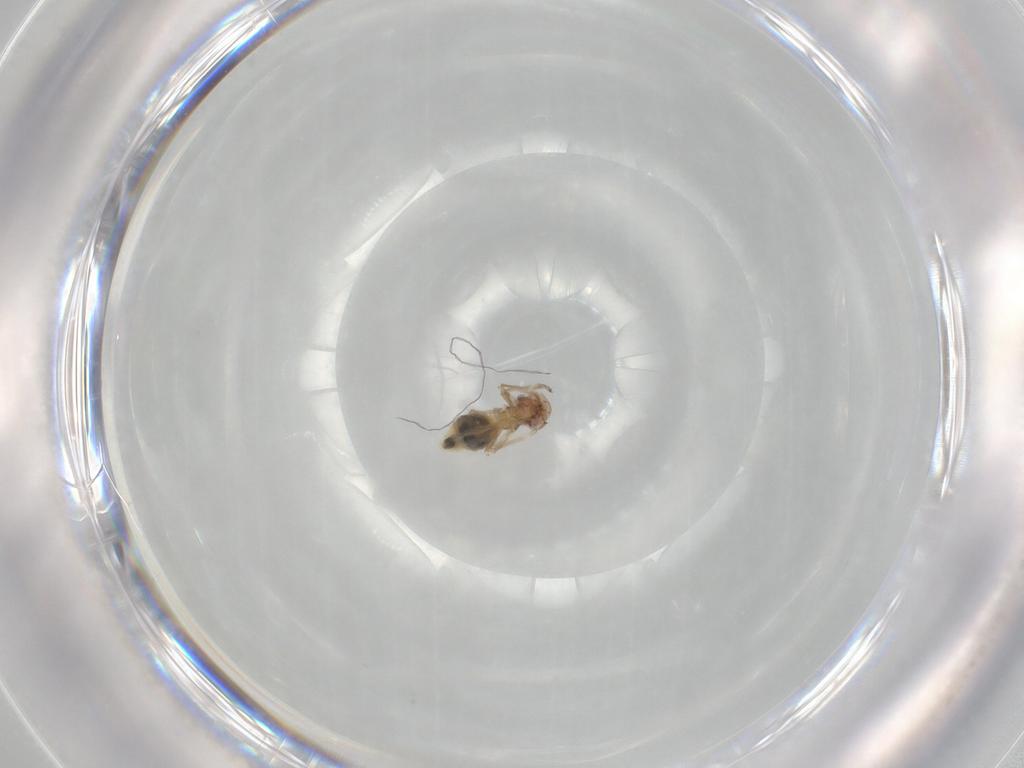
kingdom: Animalia
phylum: Arthropoda
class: Insecta
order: Psocodea
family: Stenopsocidae
